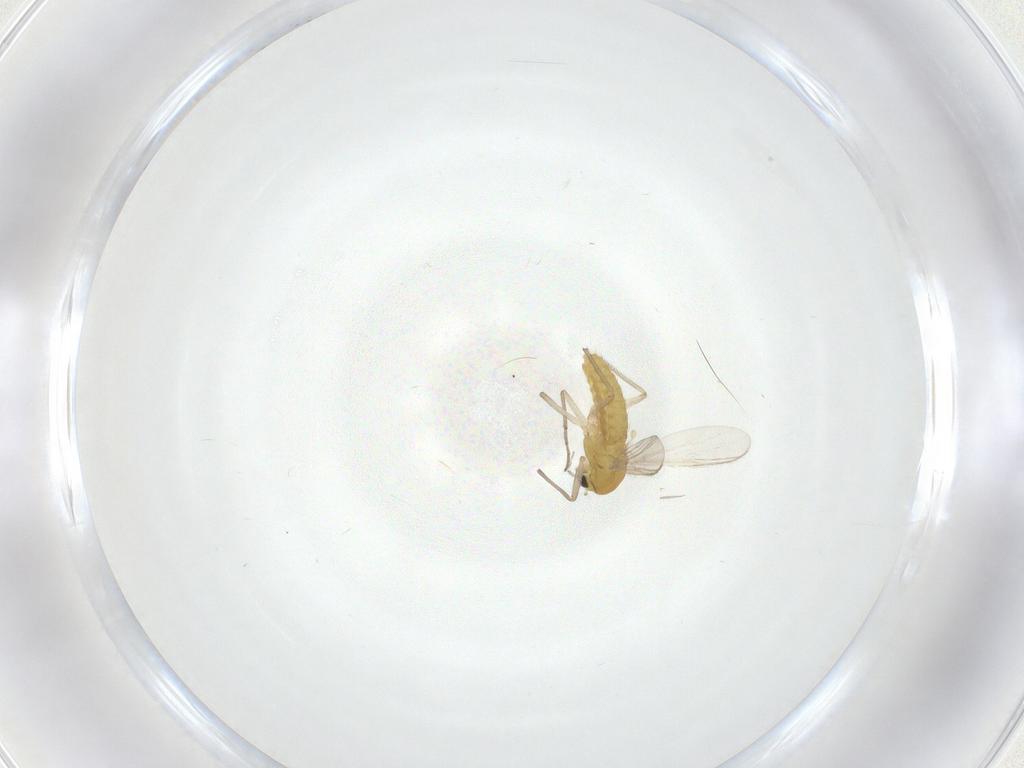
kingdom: Animalia
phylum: Arthropoda
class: Insecta
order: Diptera
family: Chironomidae
